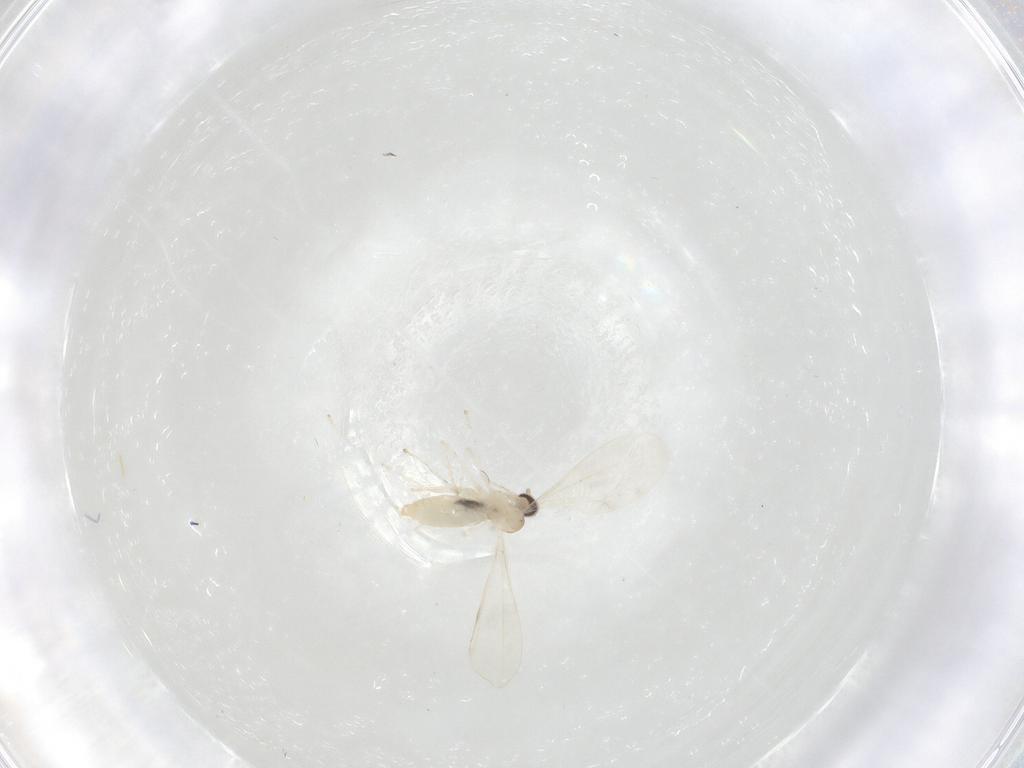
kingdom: Animalia
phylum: Arthropoda
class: Insecta
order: Diptera
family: Cecidomyiidae
